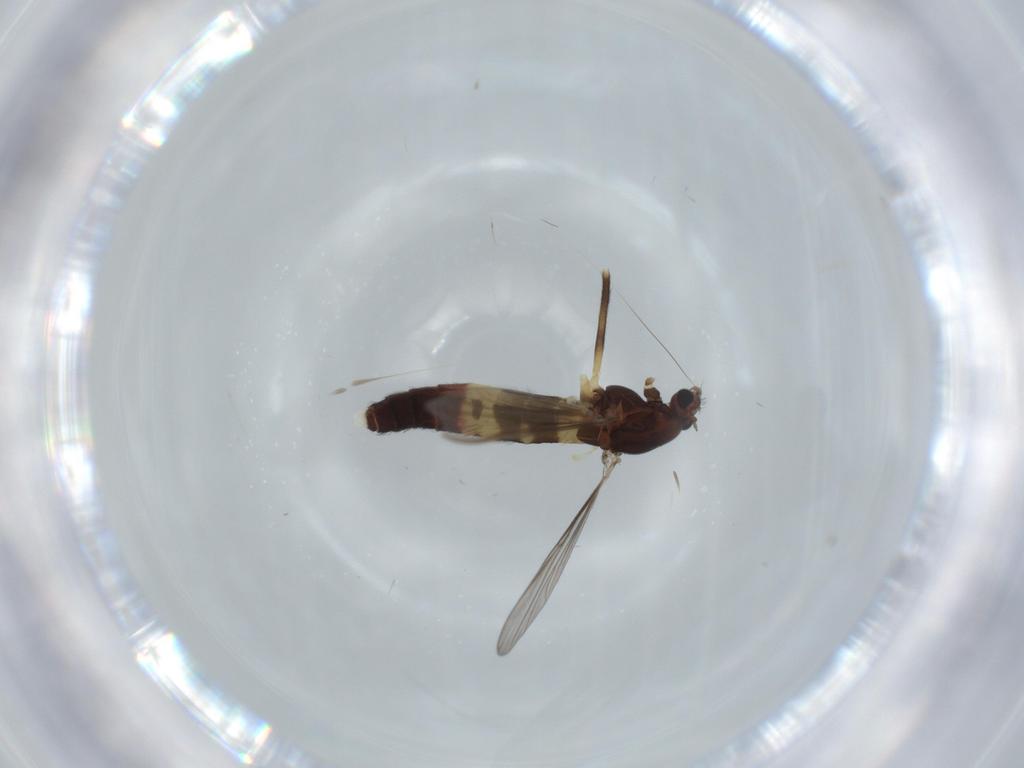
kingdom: Animalia
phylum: Arthropoda
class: Insecta
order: Diptera
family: Chironomidae
